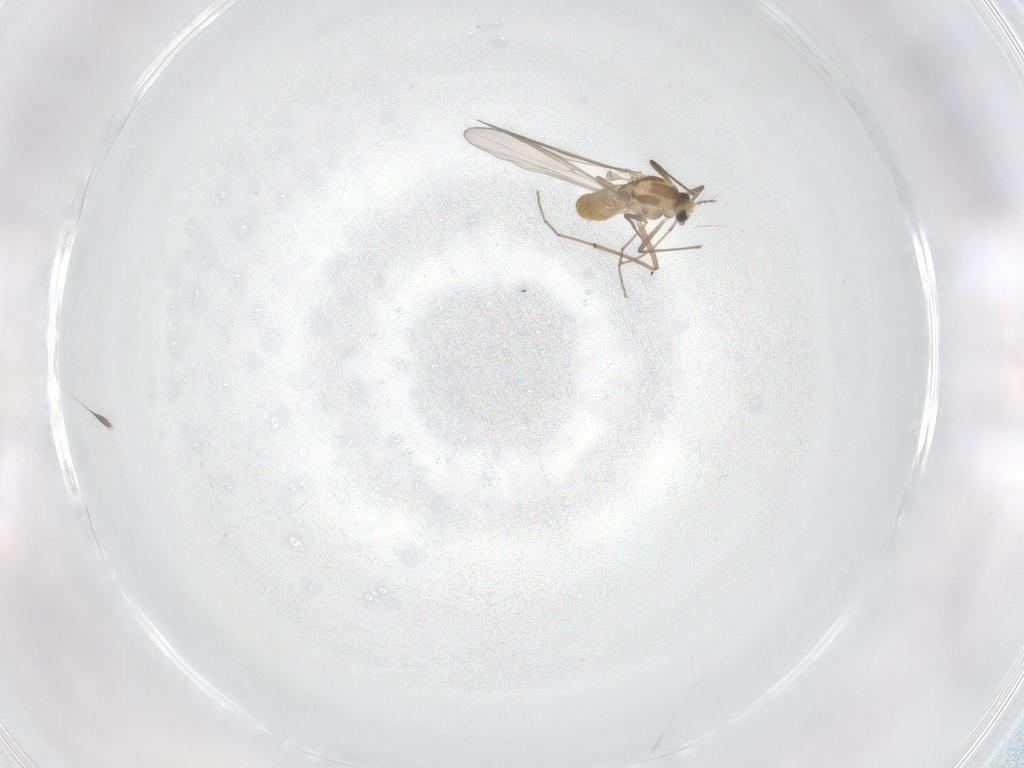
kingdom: Animalia
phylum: Arthropoda
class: Insecta
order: Diptera
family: Chironomidae
